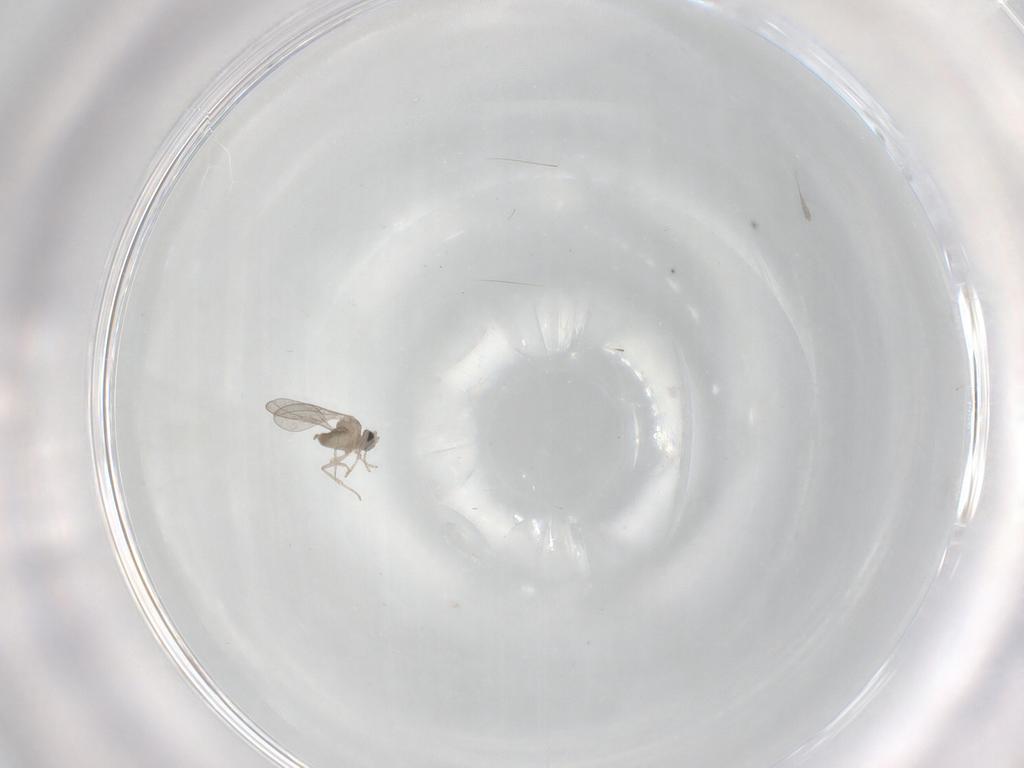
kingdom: Animalia
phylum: Arthropoda
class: Insecta
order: Diptera
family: Cecidomyiidae
